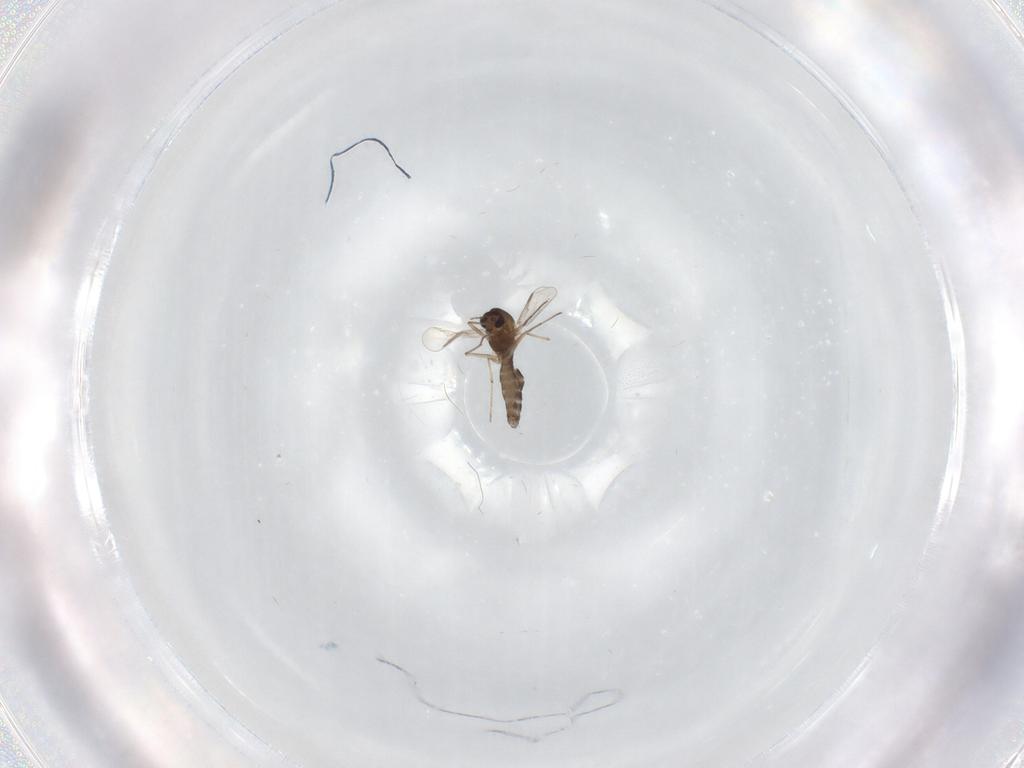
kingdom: Animalia
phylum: Arthropoda
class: Insecta
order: Diptera
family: Chironomidae
